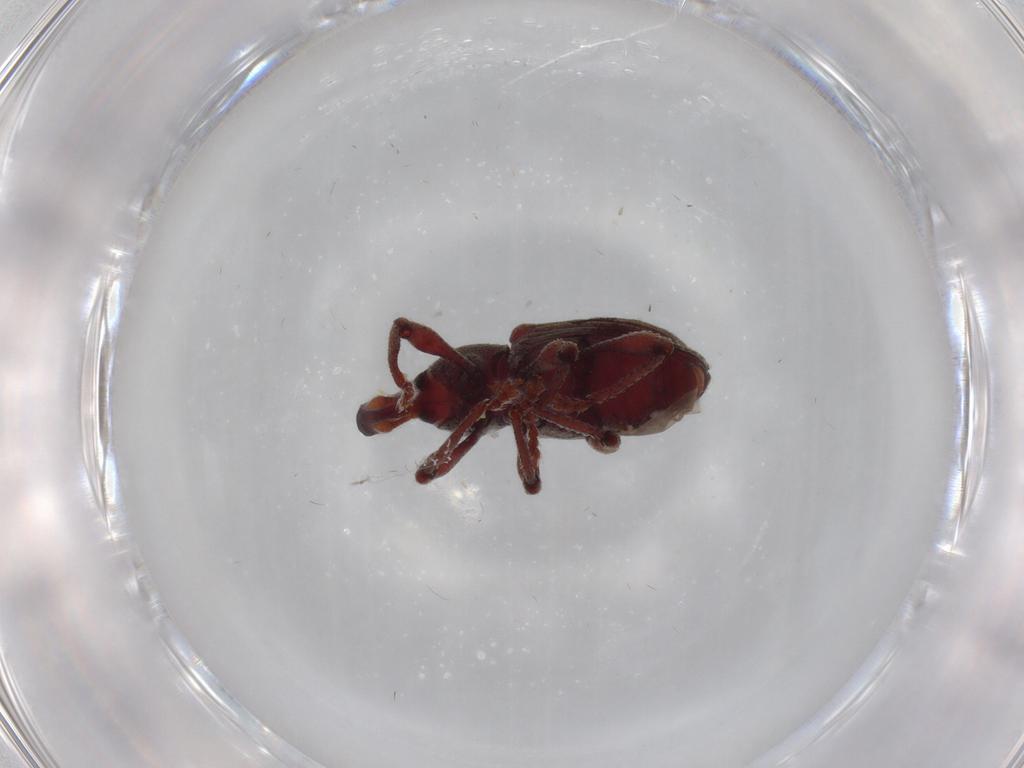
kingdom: Animalia
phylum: Arthropoda
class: Insecta
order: Coleoptera
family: Curculionidae
